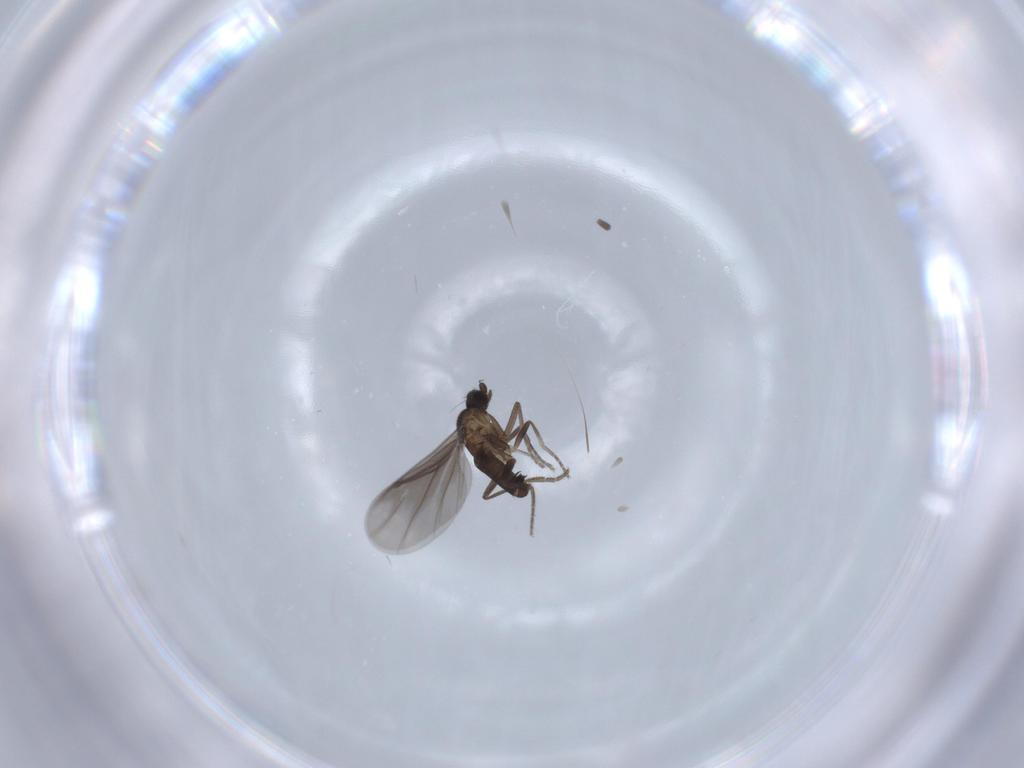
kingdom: Animalia
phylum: Arthropoda
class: Insecta
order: Diptera
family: Phoridae
